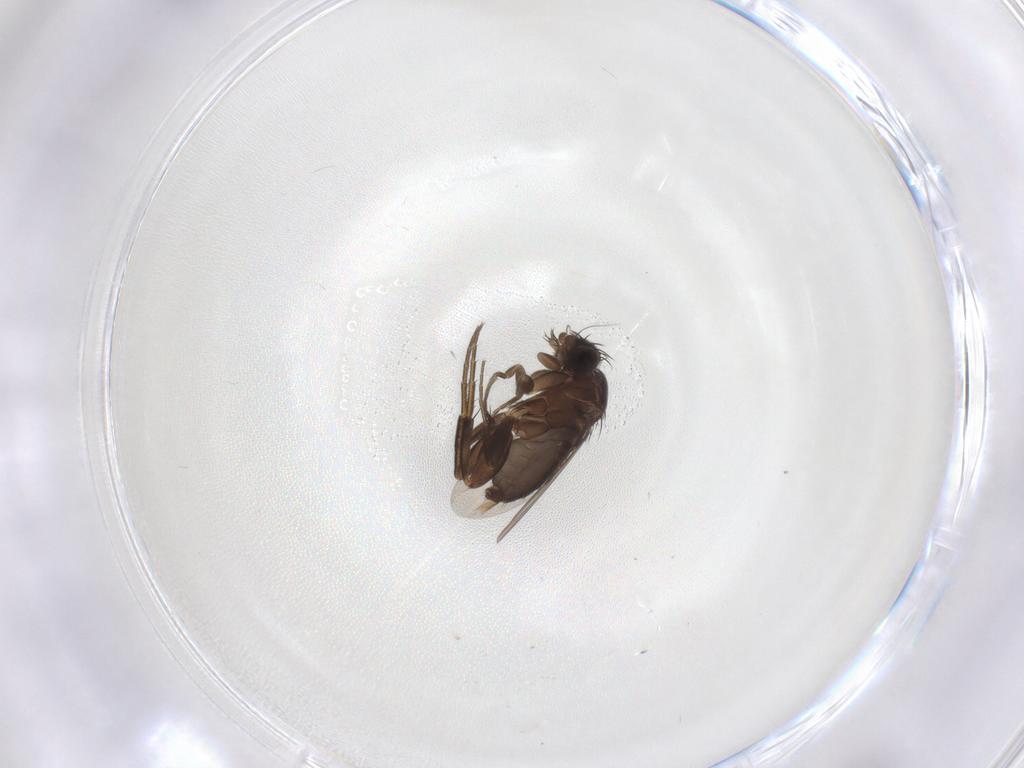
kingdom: Animalia
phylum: Arthropoda
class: Insecta
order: Diptera
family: Phoridae
